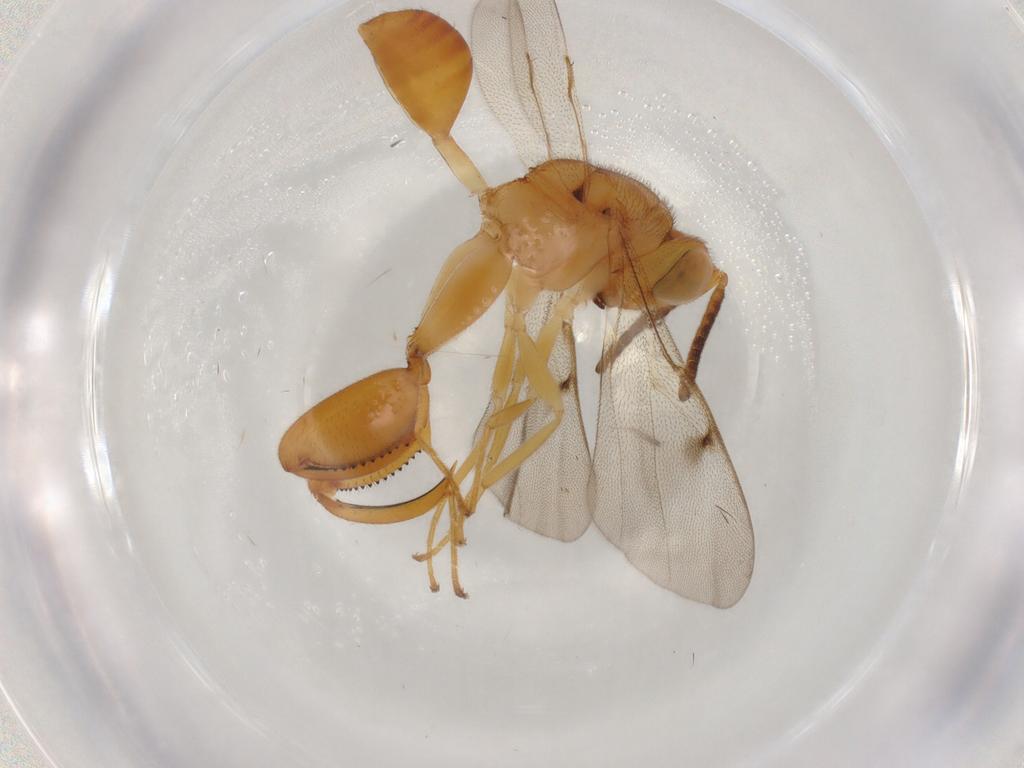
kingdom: Animalia
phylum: Arthropoda
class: Insecta
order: Hymenoptera
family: Chalcididae
